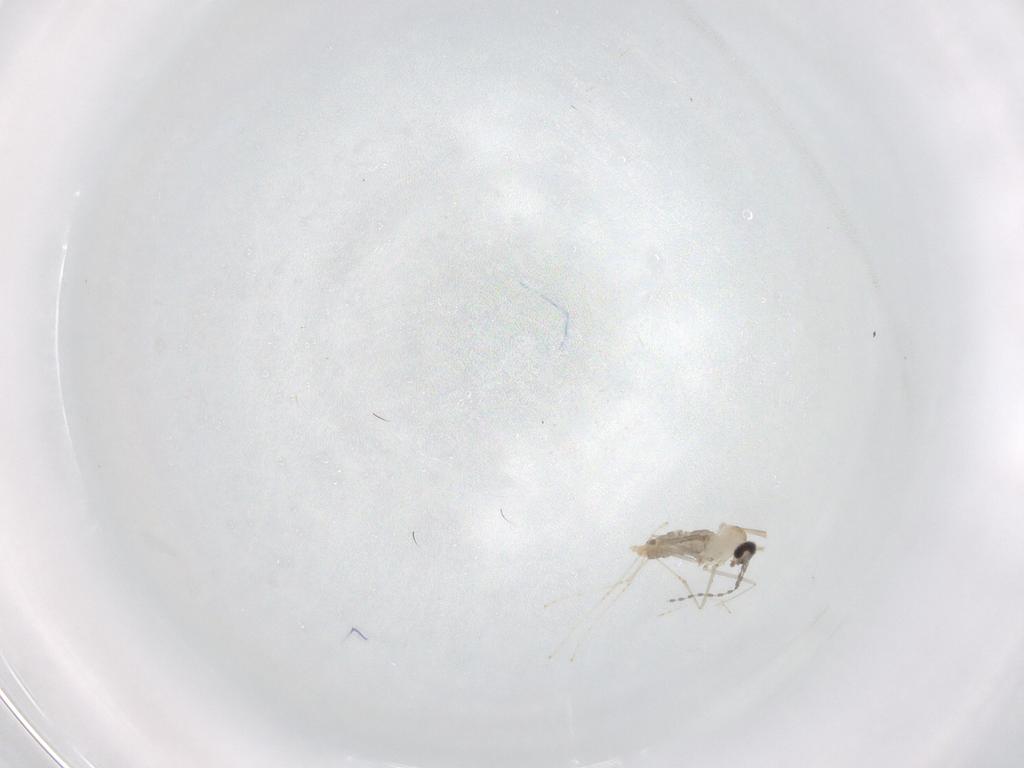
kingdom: Animalia
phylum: Arthropoda
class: Insecta
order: Diptera
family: Cecidomyiidae
